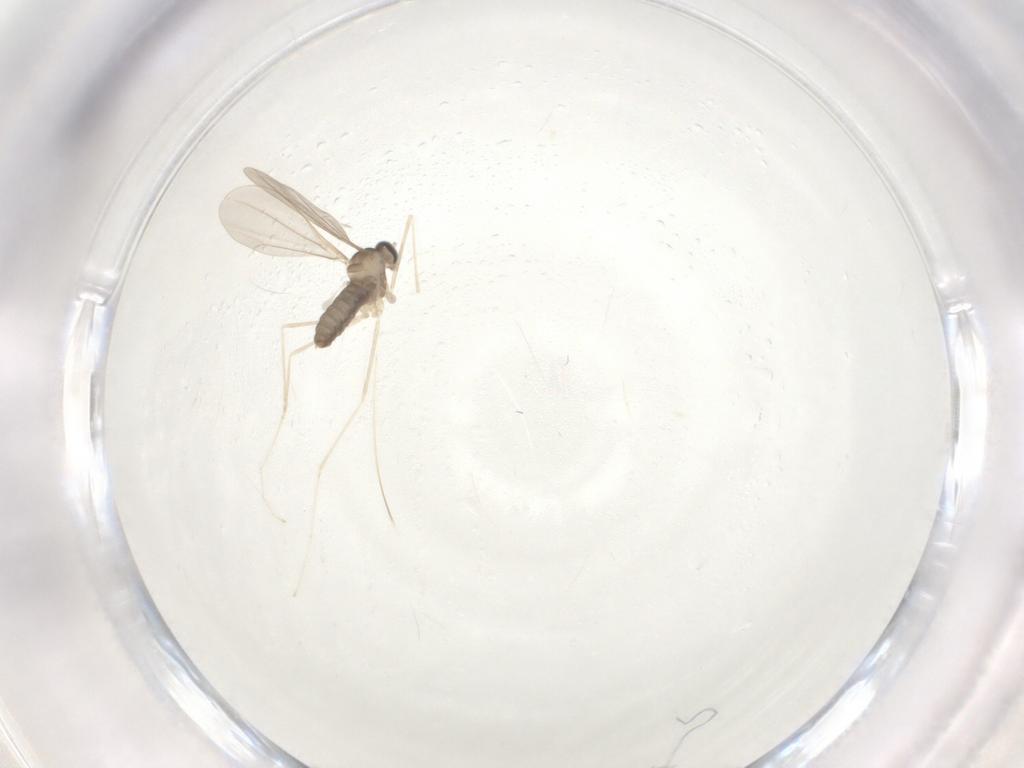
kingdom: Animalia
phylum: Arthropoda
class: Insecta
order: Diptera
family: Cecidomyiidae
